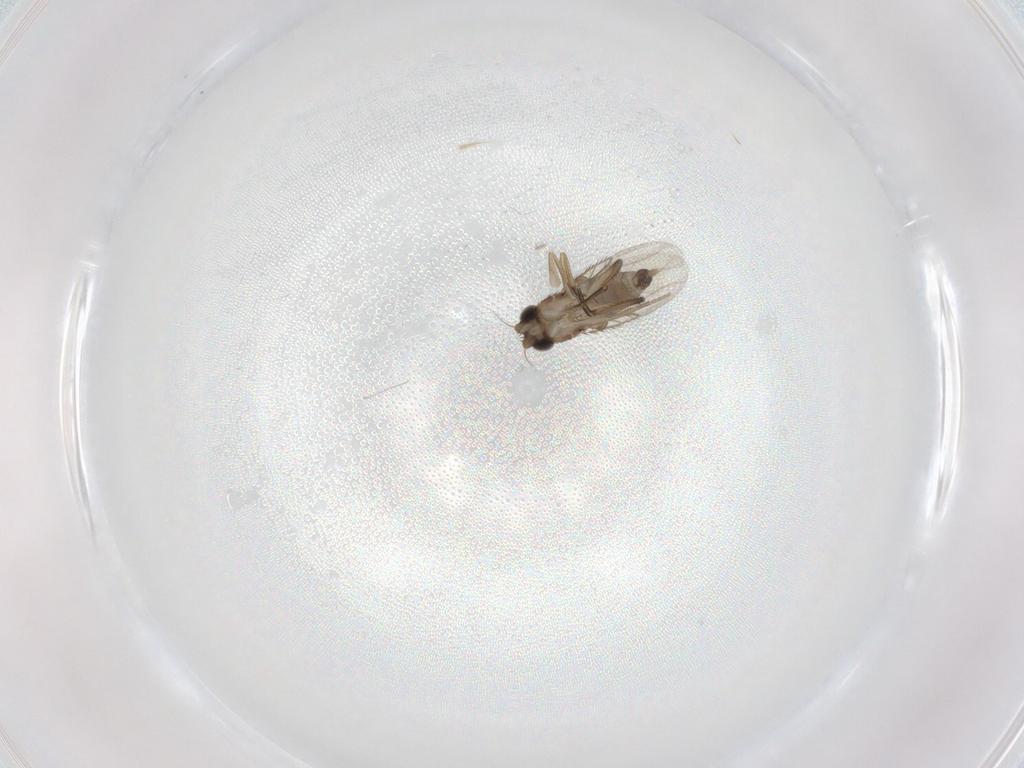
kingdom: Animalia
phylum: Arthropoda
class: Insecta
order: Diptera
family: Phoridae
